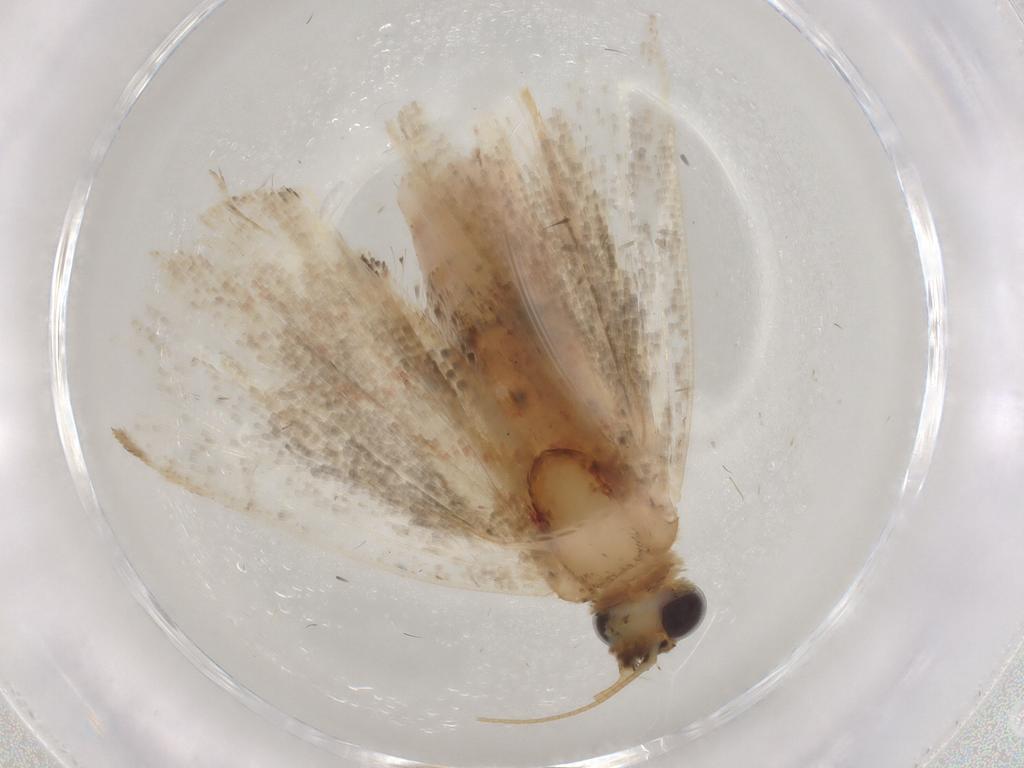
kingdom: Animalia
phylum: Arthropoda
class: Insecta
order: Lepidoptera
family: Erebidae
